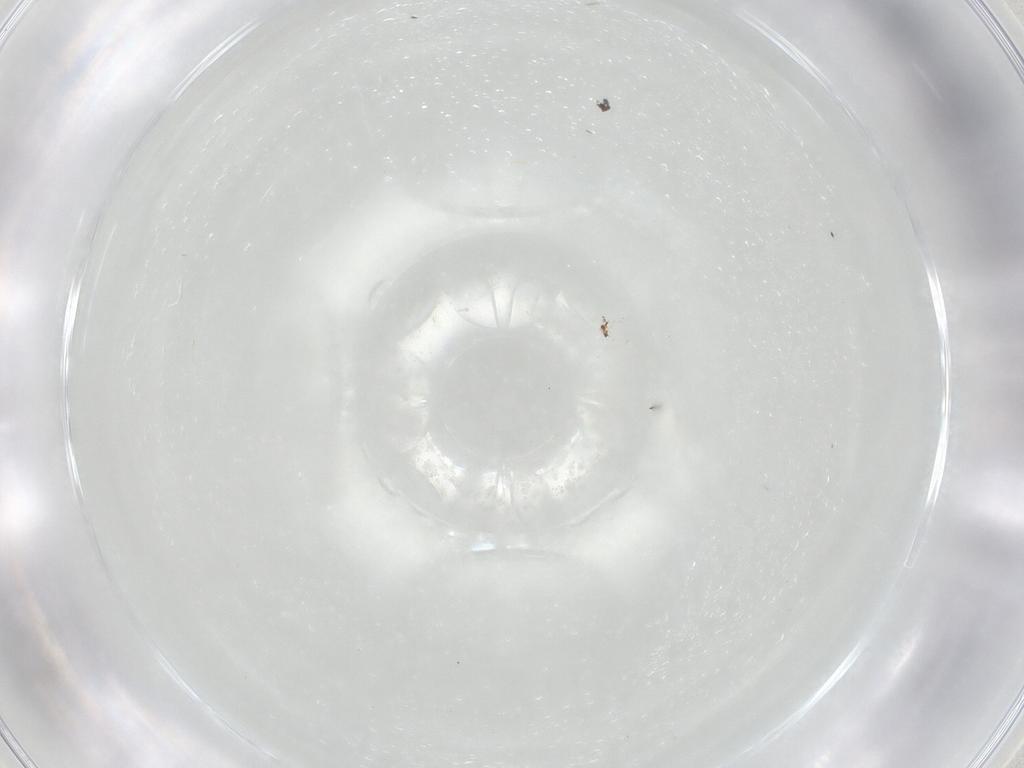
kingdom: Animalia
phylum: Arthropoda
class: Insecta
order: Diptera
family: Tachinidae
